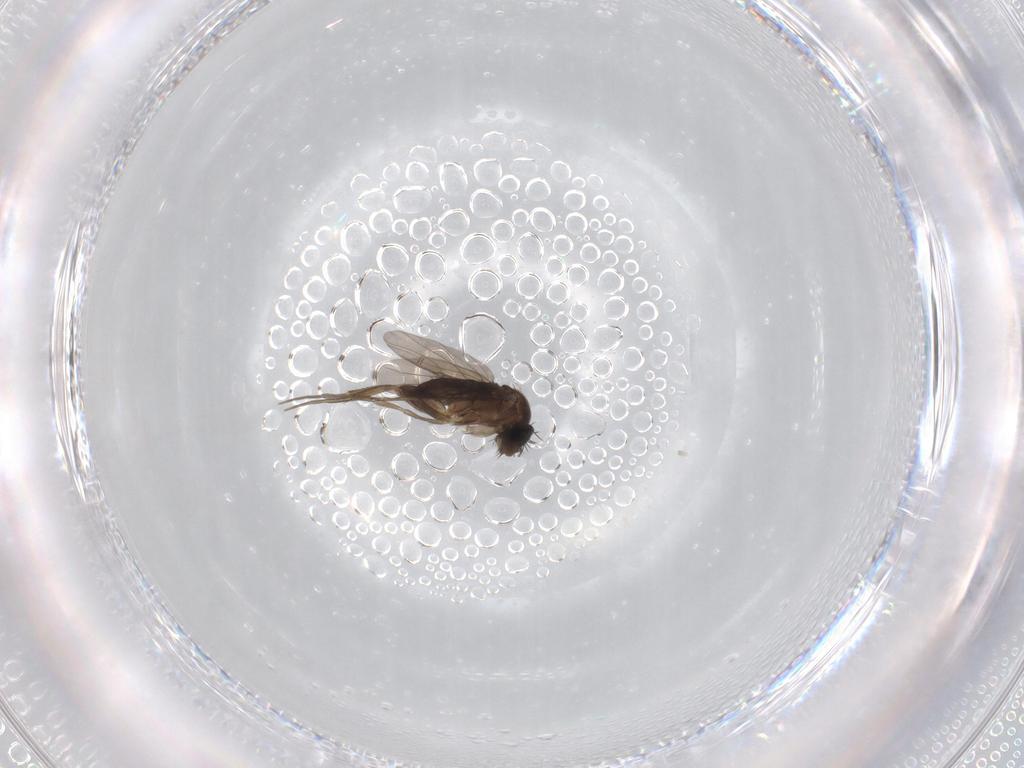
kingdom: Animalia
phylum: Arthropoda
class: Insecta
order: Diptera
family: Phoridae
